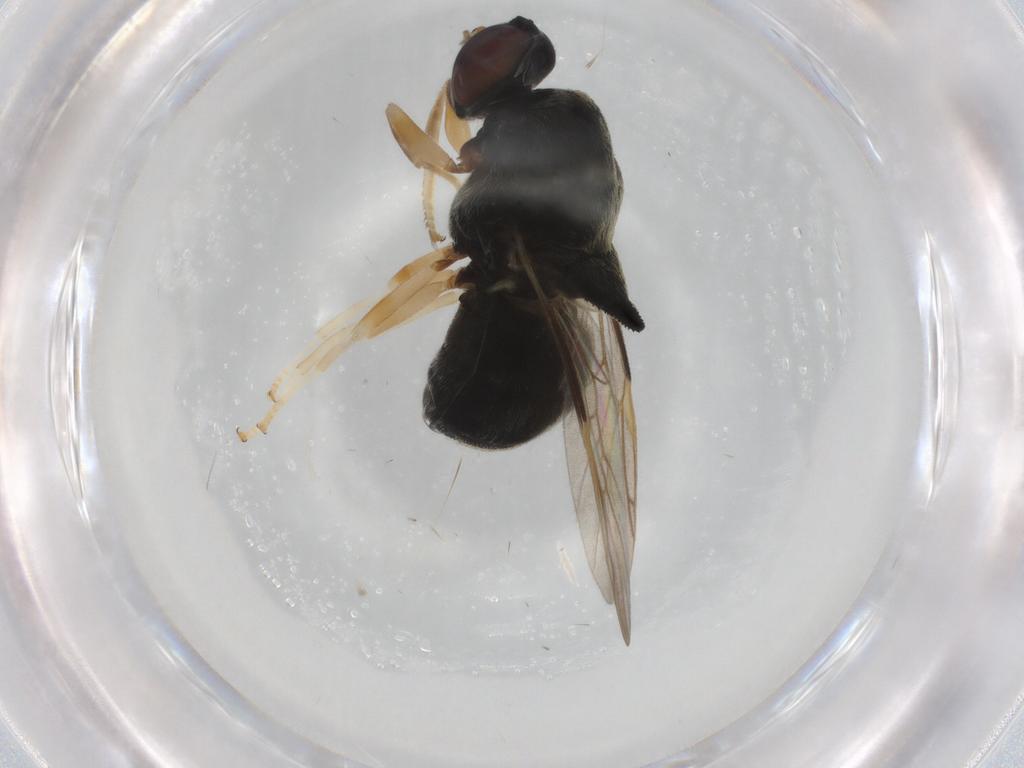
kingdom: Animalia
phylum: Arthropoda
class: Insecta
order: Diptera
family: Stratiomyidae
